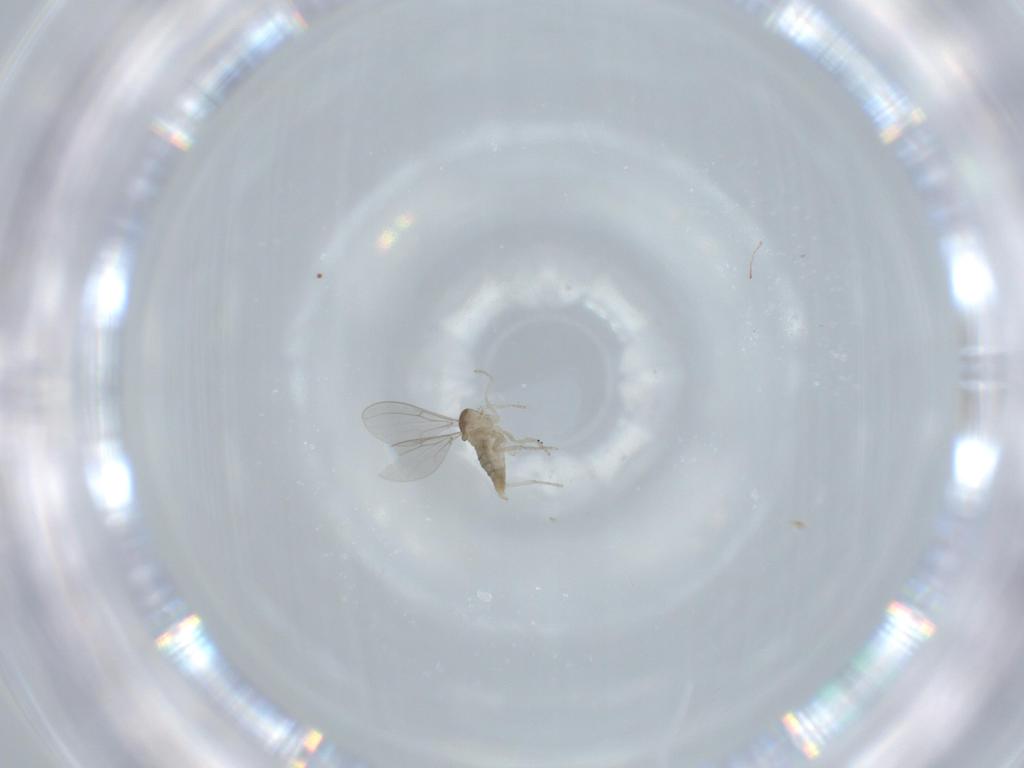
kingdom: Animalia
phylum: Arthropoda
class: Insecta
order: Diptera
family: Cecidomyiidae
